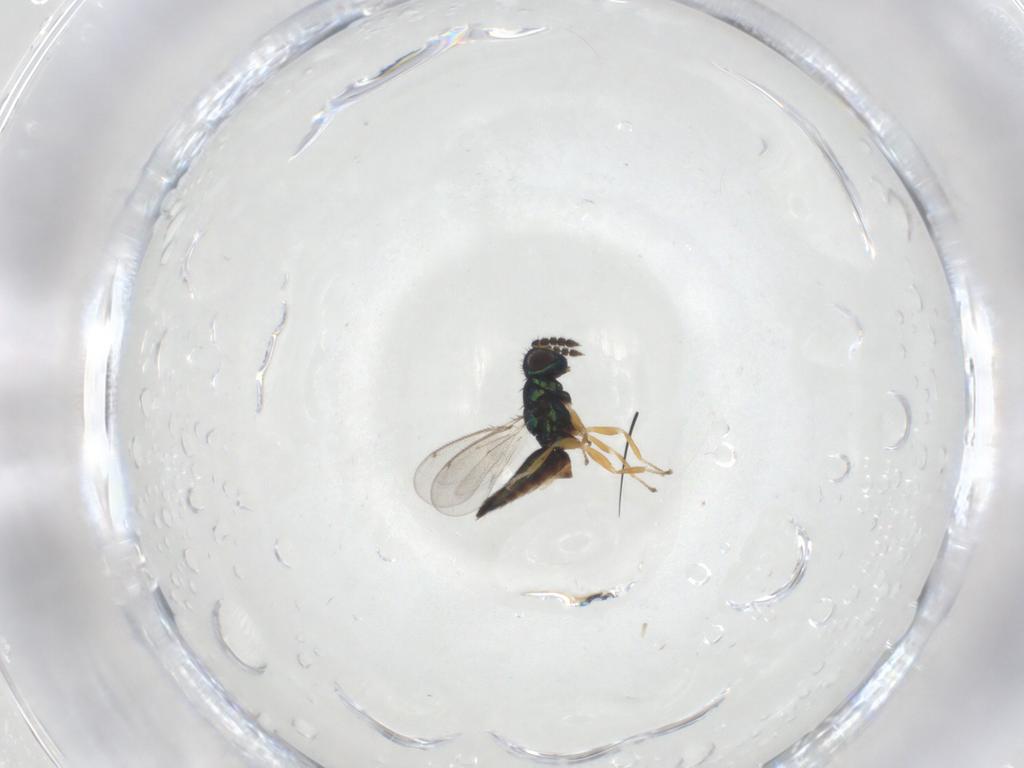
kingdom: Animalia
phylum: Arthropoda
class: Insecta
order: Hymenoptera
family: Eulophidae
